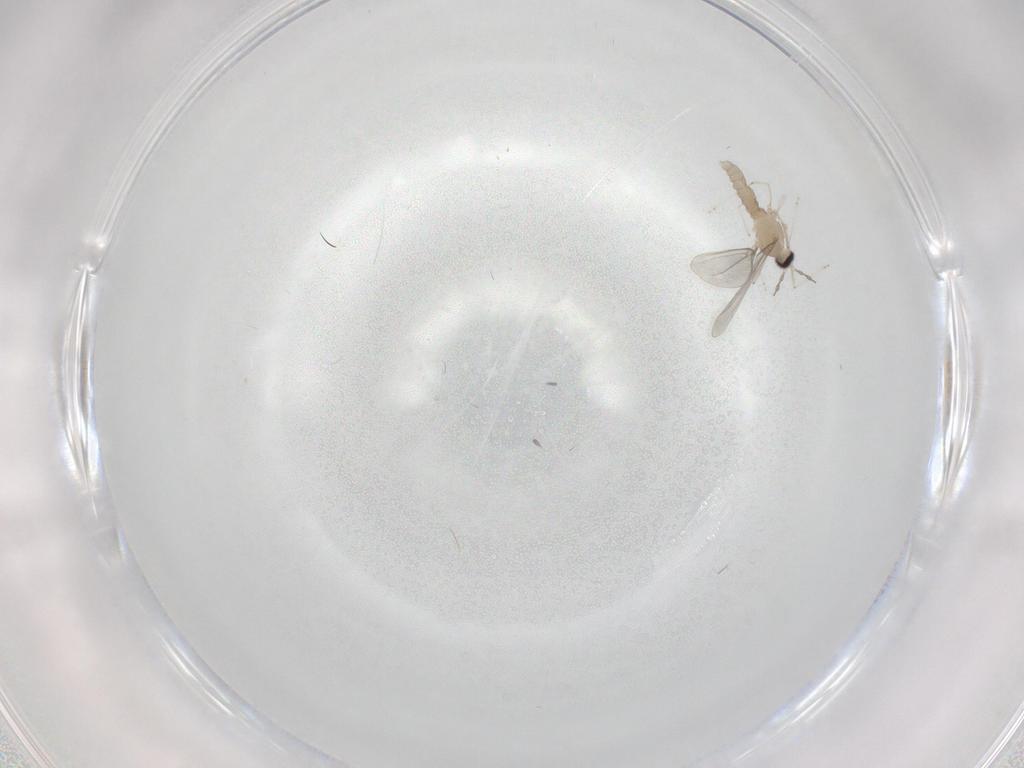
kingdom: Animalia
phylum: Arthropoda
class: Insecta
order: Diptera
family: Cecidomyiidae
